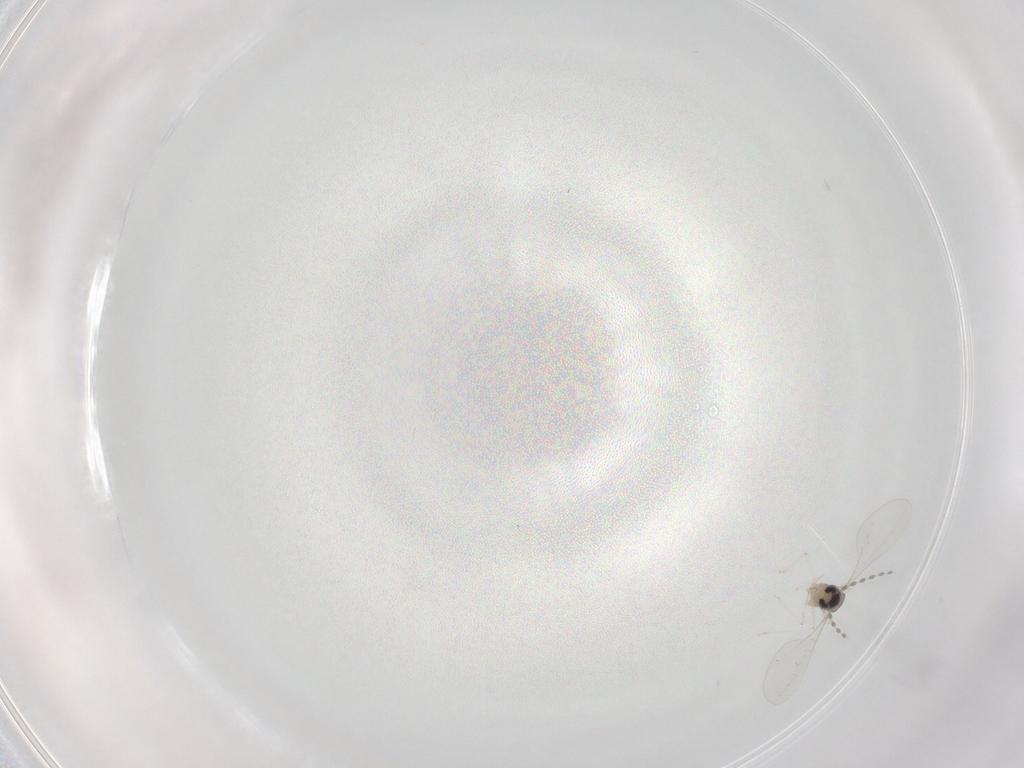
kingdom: Animalia
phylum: Arthropoda
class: Insecta
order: Diptera
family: Cecidomyiidae
